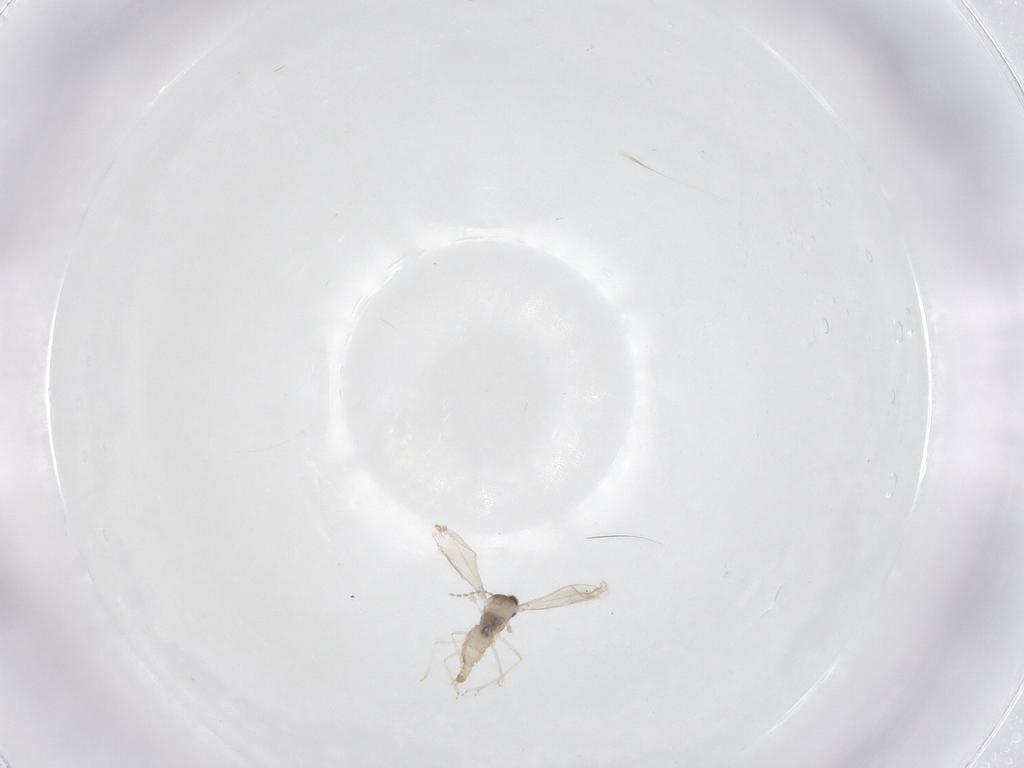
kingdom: Animalia
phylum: Arthropoda
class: Insecta
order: Diptera
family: Cecidomyiidae
